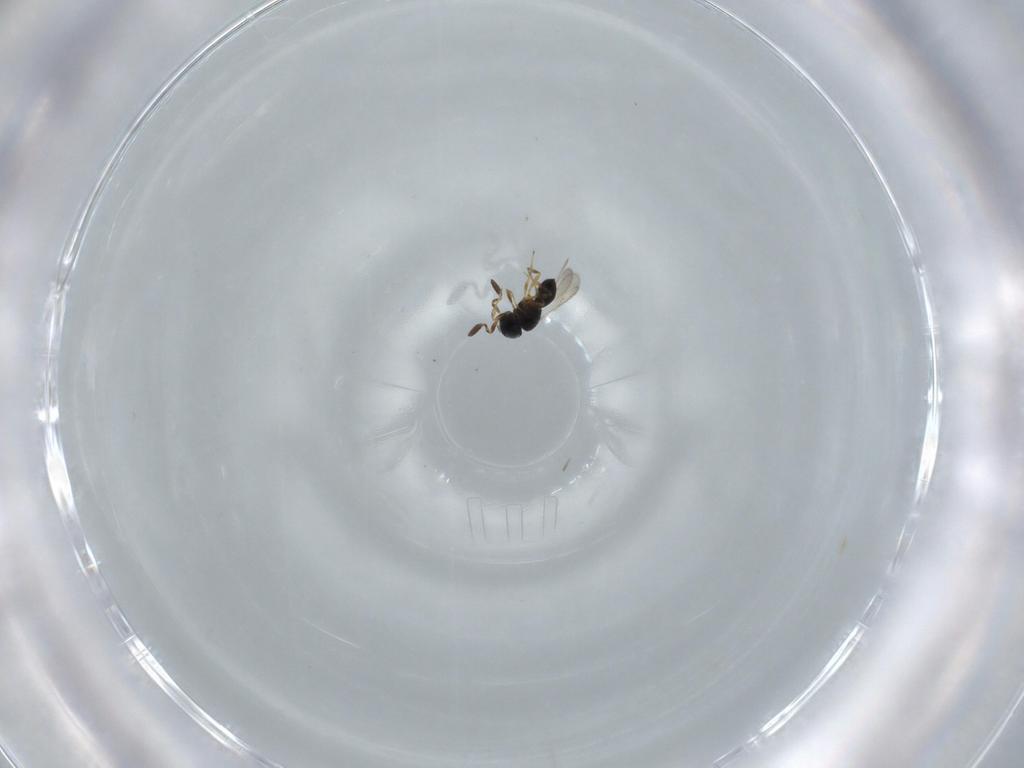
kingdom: Animalia
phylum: Arthropoda
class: Insecta
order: Hymenoptera
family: Scelionidae
